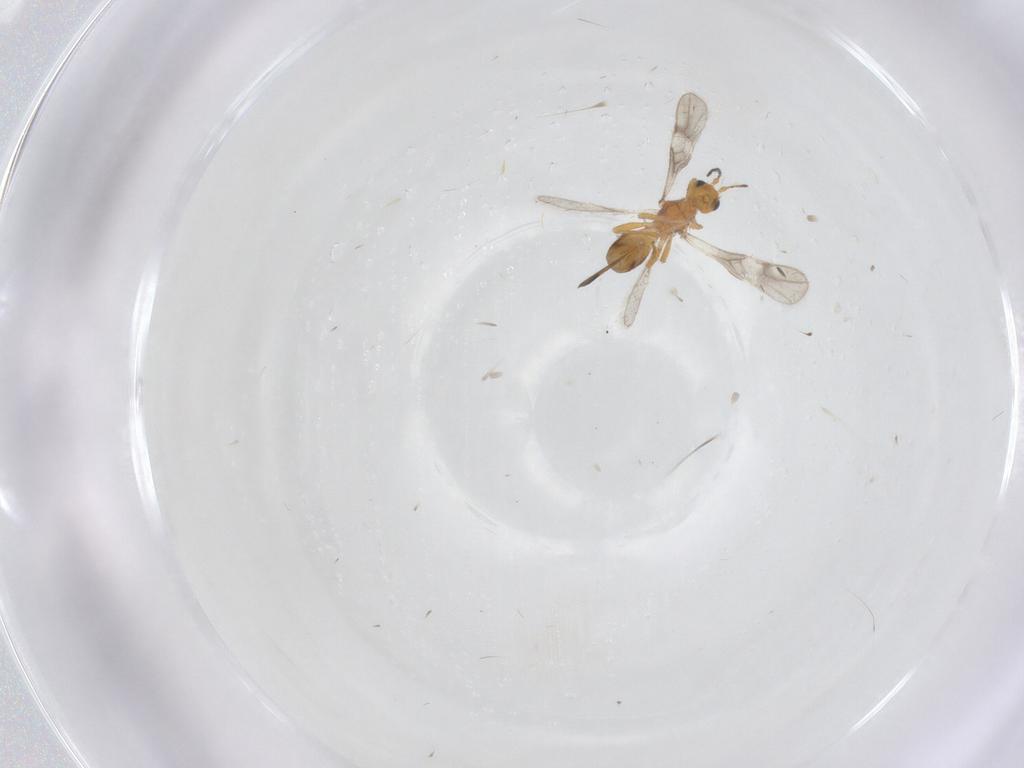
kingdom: Animalia
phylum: Arthropoda
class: Insecta
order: Hymenoptera
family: Braconidae
